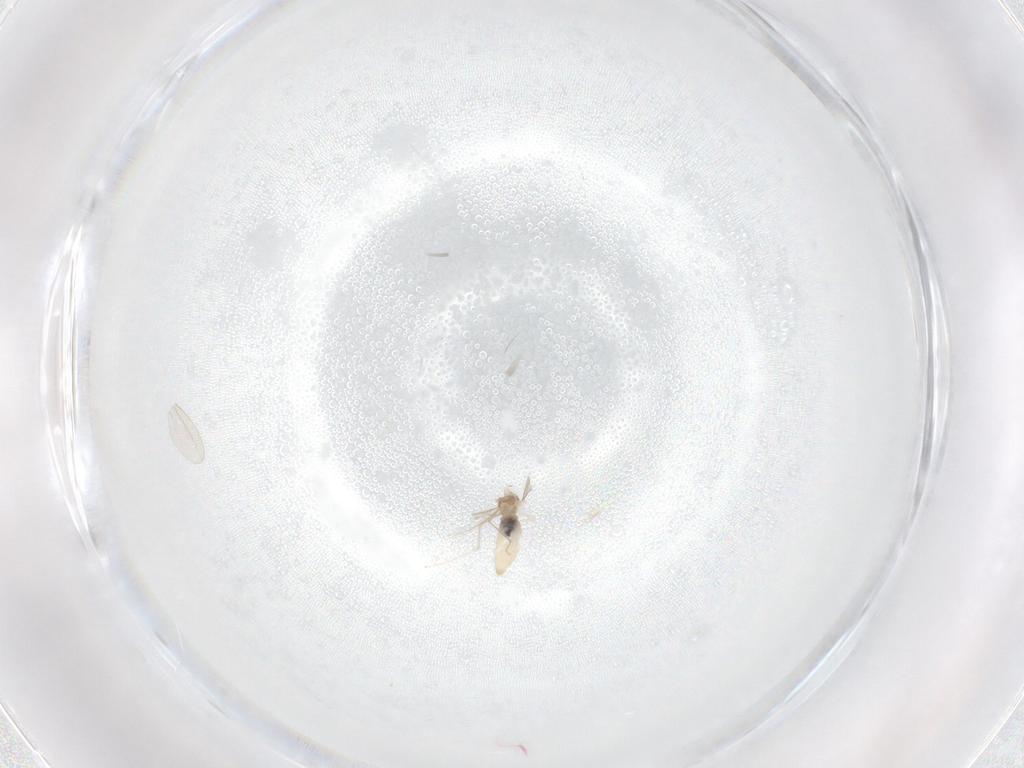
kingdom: Animalia
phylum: Arthropoda
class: Insecta
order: Diptera
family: Cecidomyiidae
